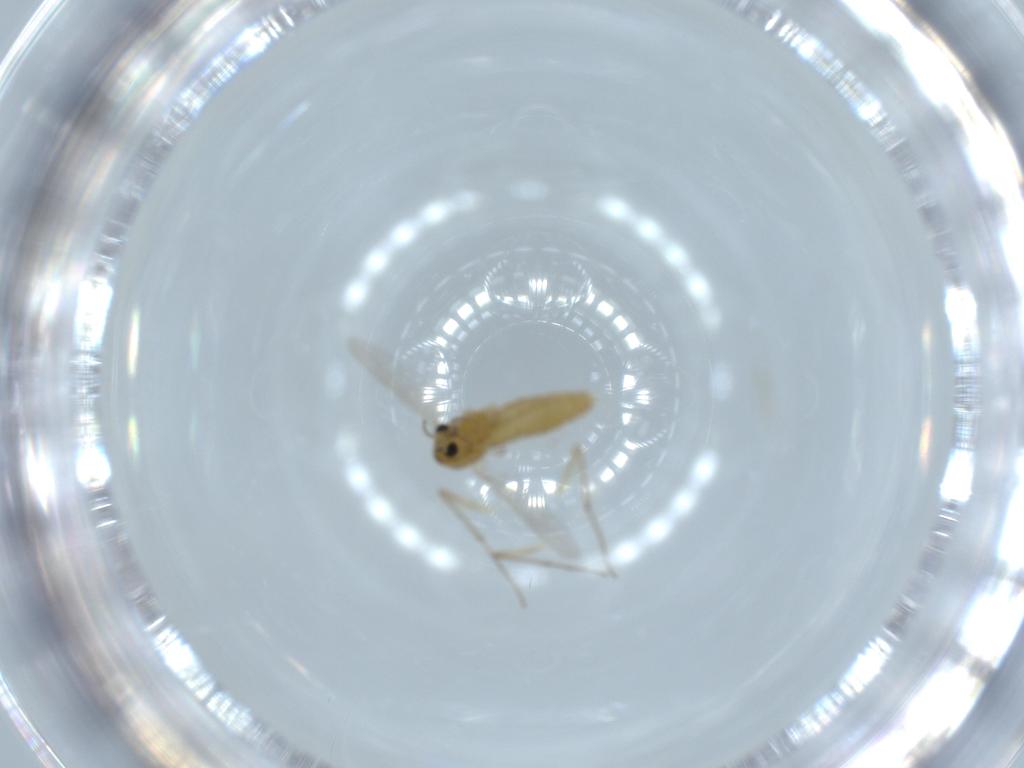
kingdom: Animalia
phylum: Arthropoda
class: Insecta
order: Diptera
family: Chironomidae
